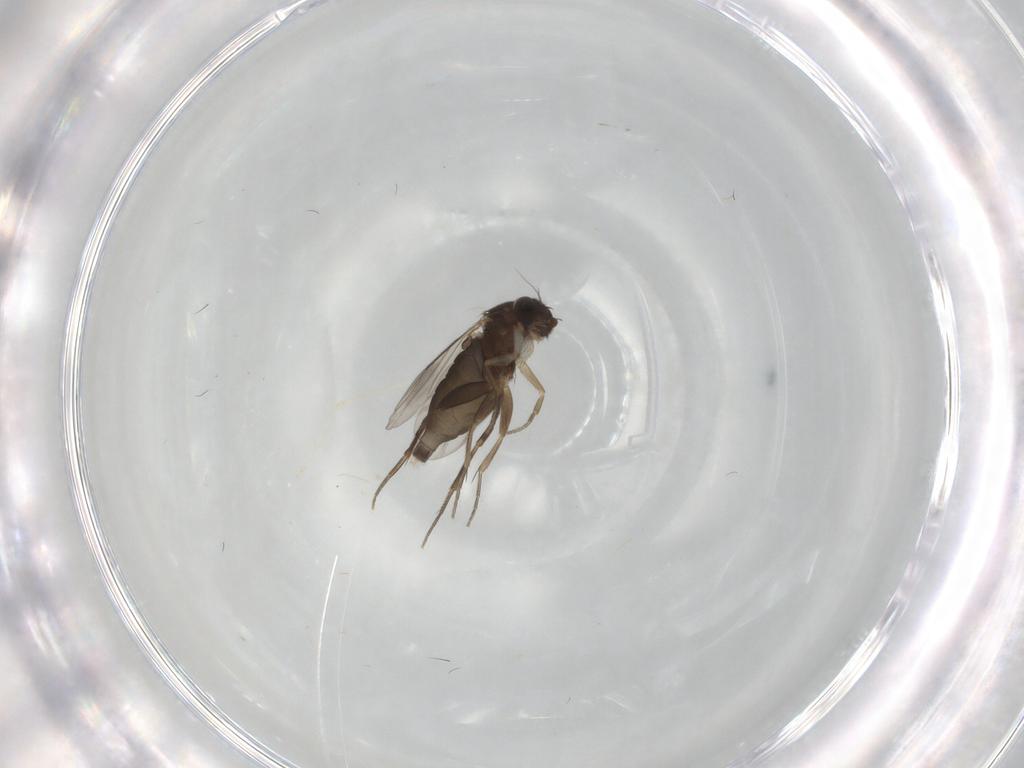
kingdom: Animalia
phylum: Arthropoda
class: Insecta
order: Diptera
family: Phoridae
